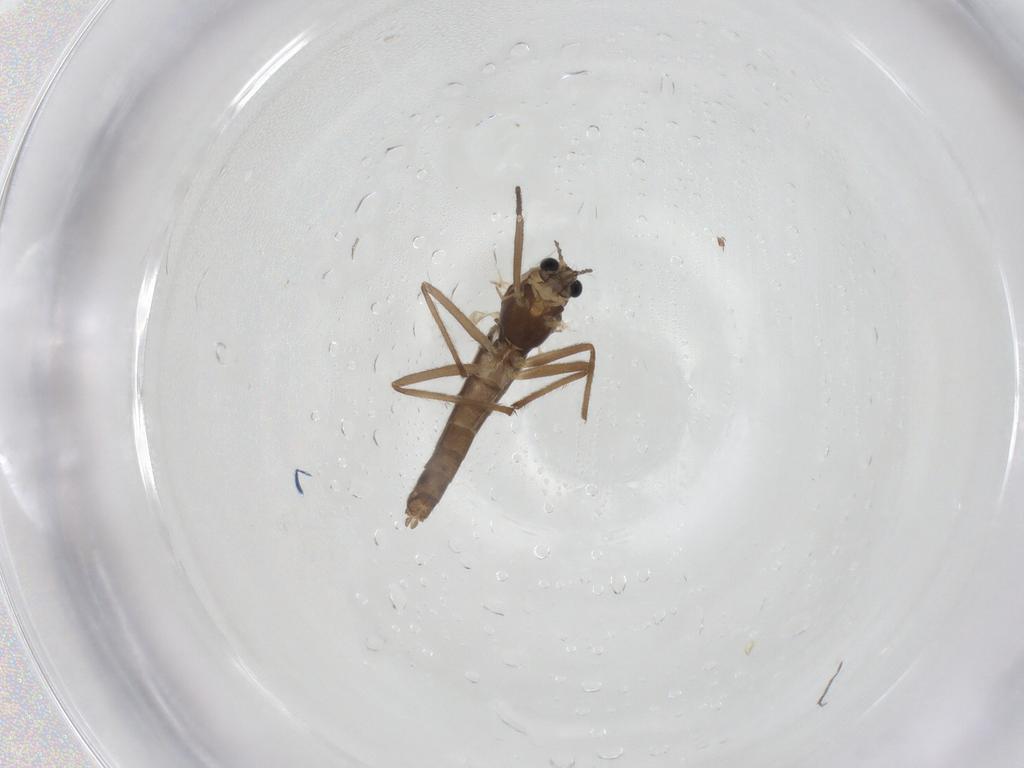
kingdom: Animalia
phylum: Arthropoda
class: Insecta
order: Diptera
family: Chironomidae
